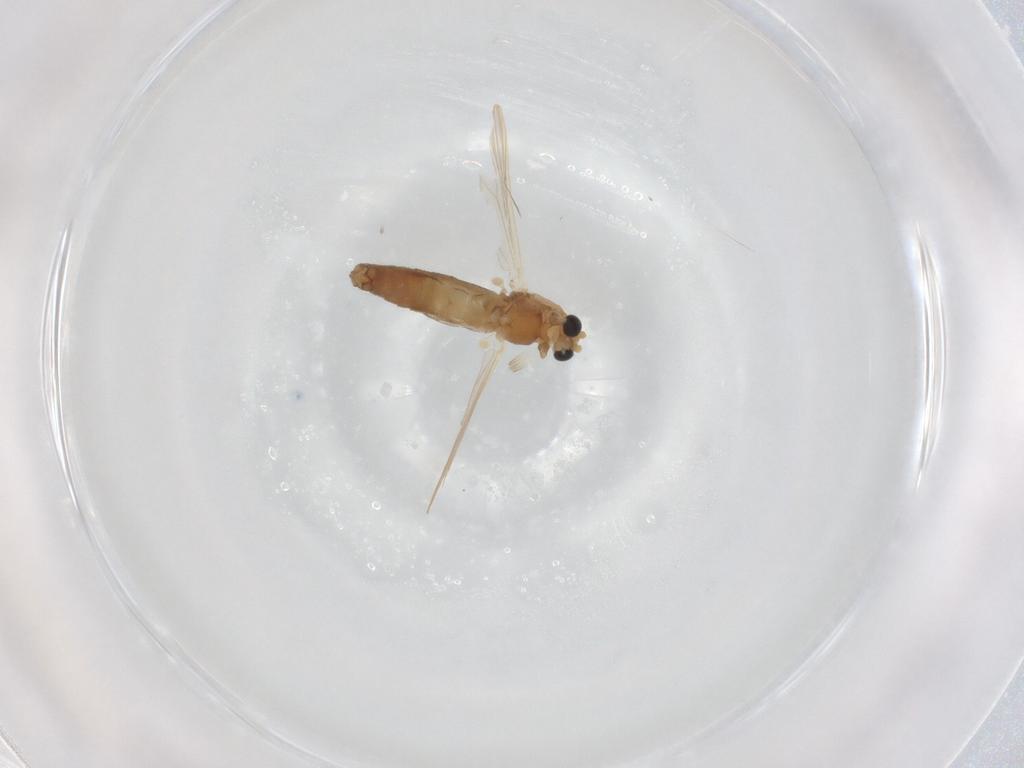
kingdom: Animalia
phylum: Arthropoda
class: Insecta
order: Diptera
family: Chironomidae
